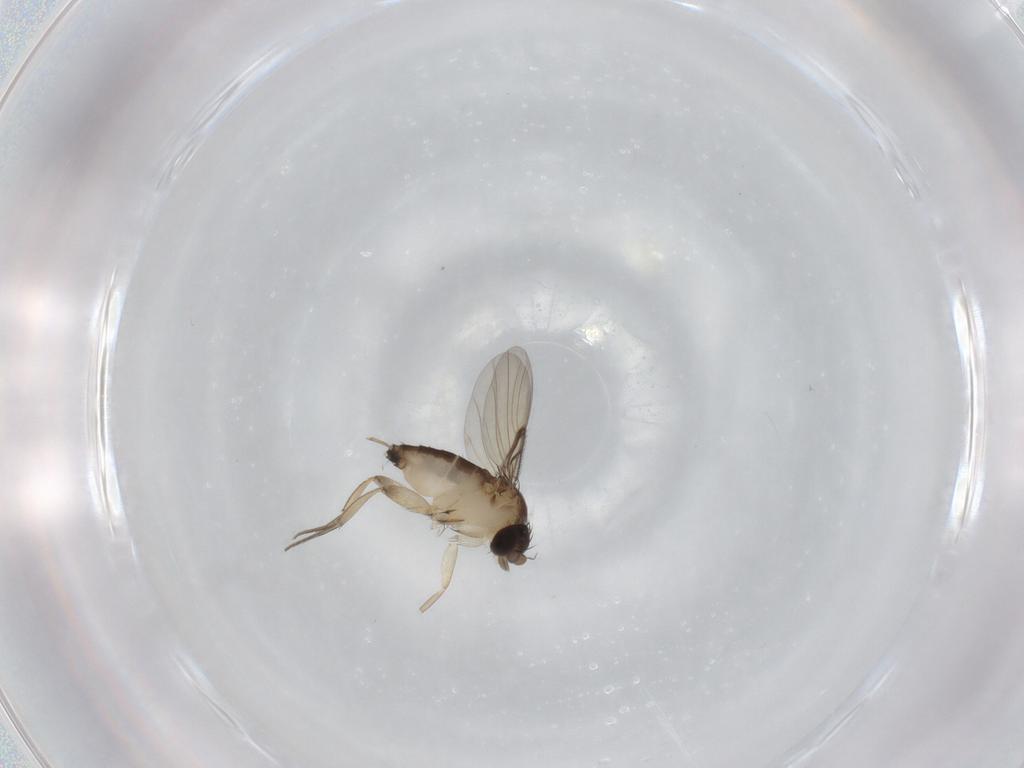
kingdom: Animalia
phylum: Arthropoda
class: Insecta
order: Diptera
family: Phoridae
